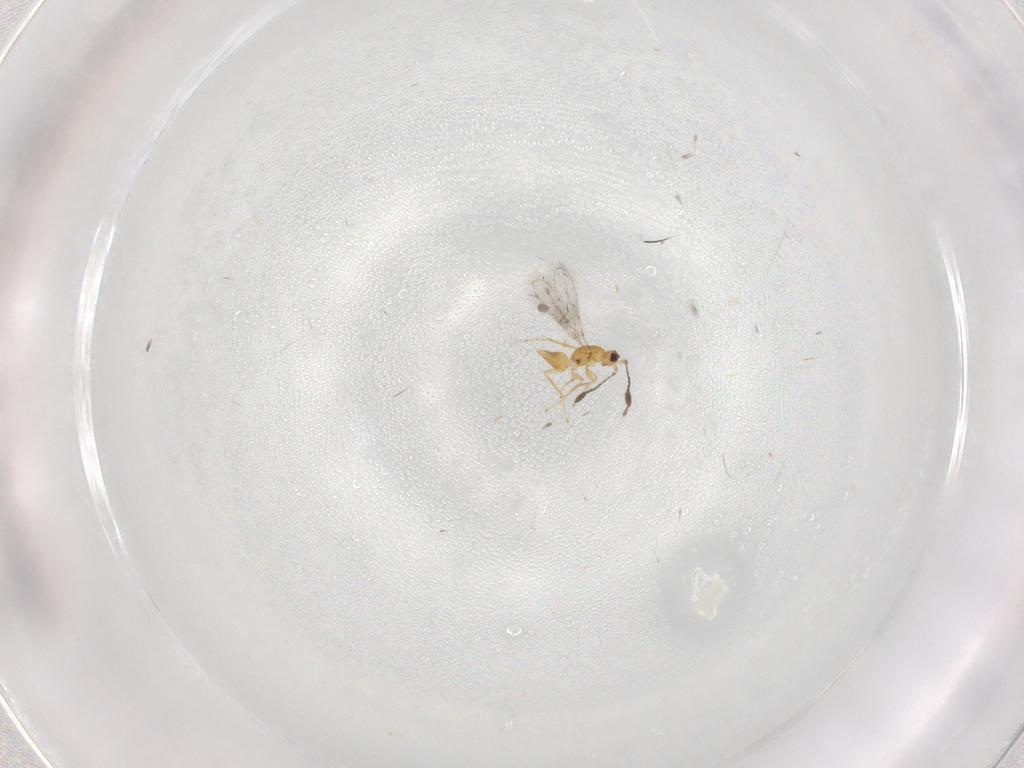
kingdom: Animalia
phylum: Arthropoda
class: Insecta
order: Hymenoptera
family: Mymaridae
